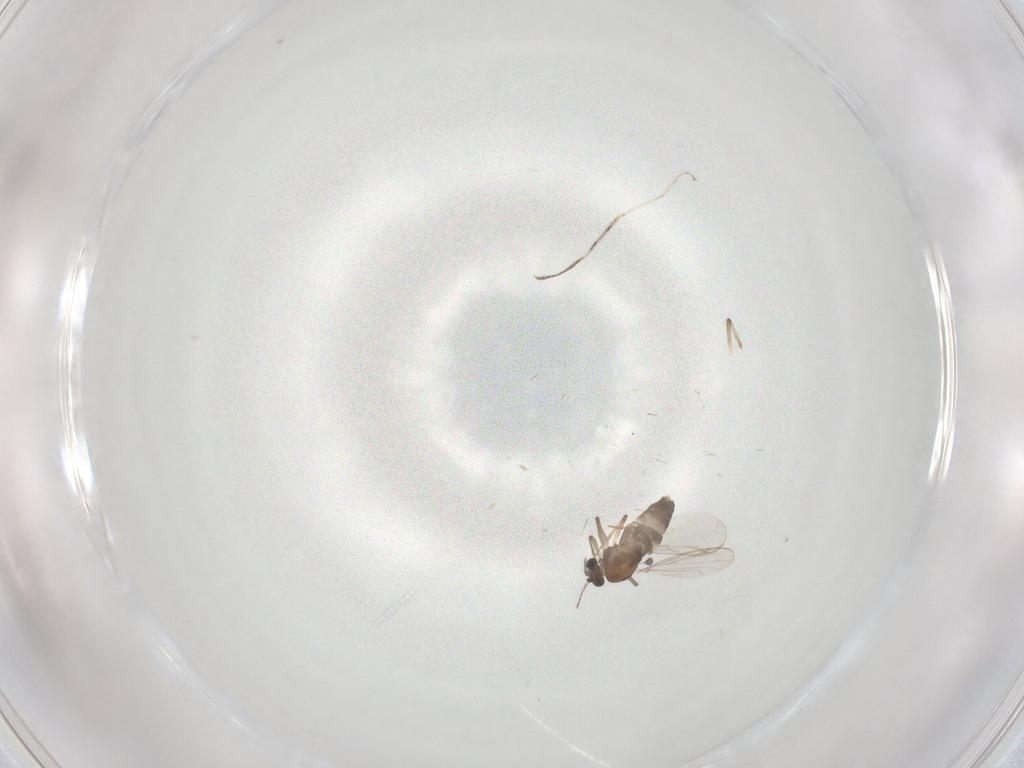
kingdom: Animalia
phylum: Arthropoda
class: Insecta
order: Diptera
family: Chironomidae
